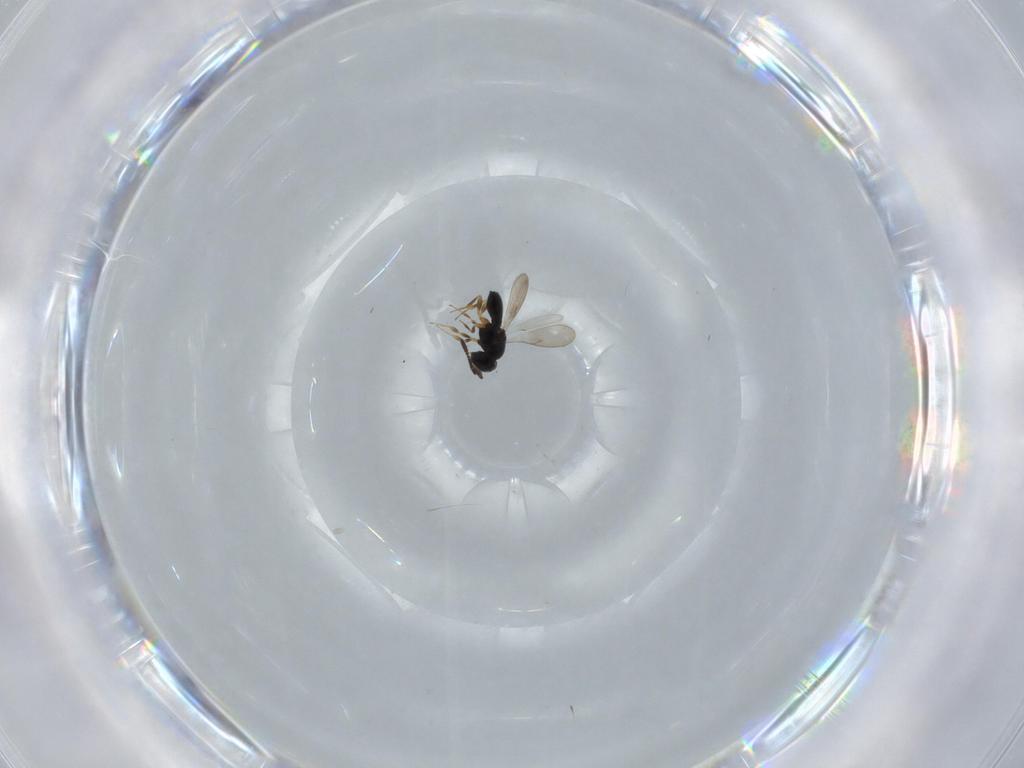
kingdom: Animalia
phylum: Arthropoda
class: Insecta
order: Hymenoptera
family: Scelionidae
